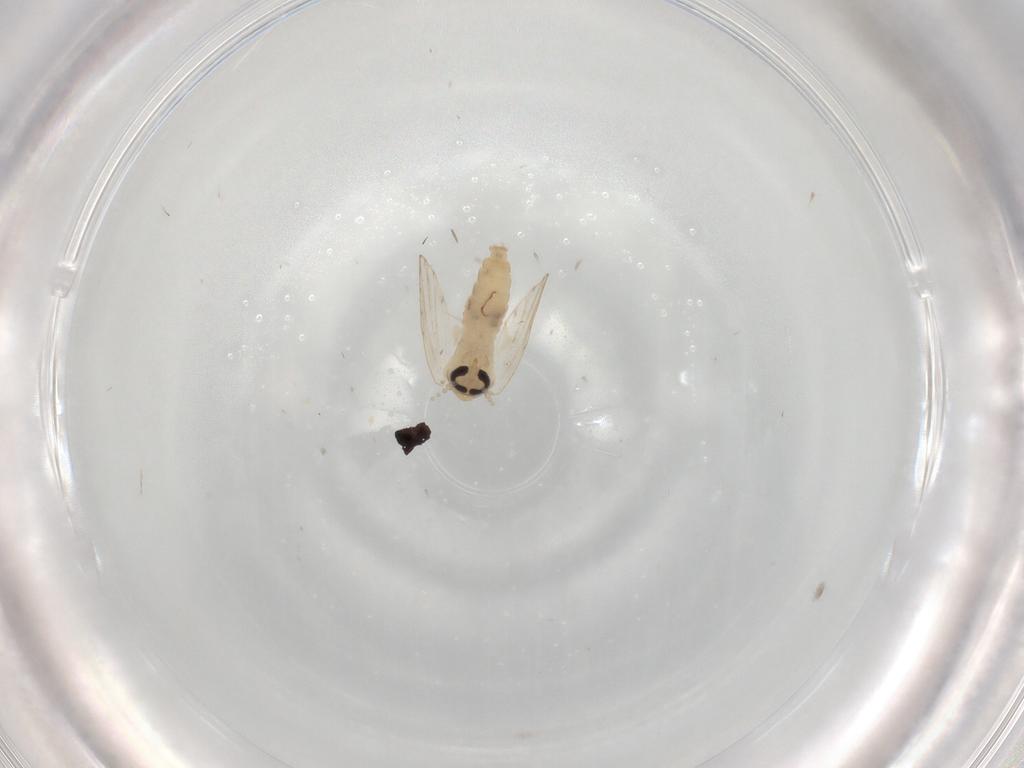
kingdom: Animalia
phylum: Arthropoda
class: Insecta
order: Diptera
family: Psychodidae
